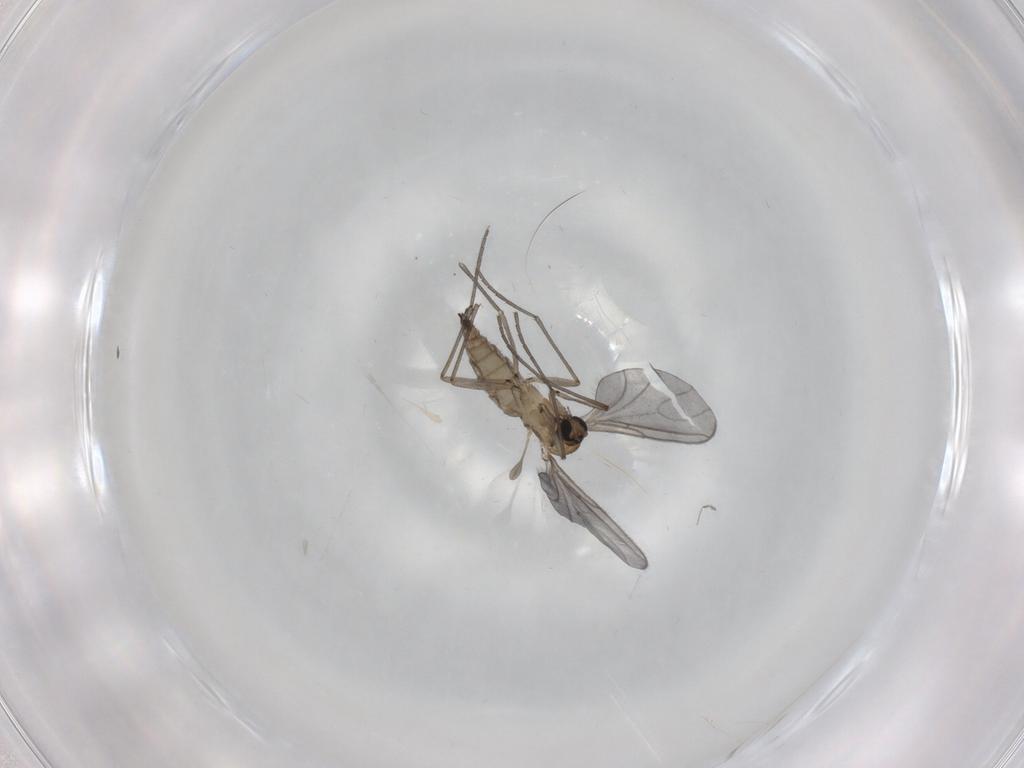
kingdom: Animalia
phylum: Arthropoda
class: Insecta
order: Diptera
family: Sciaridae
